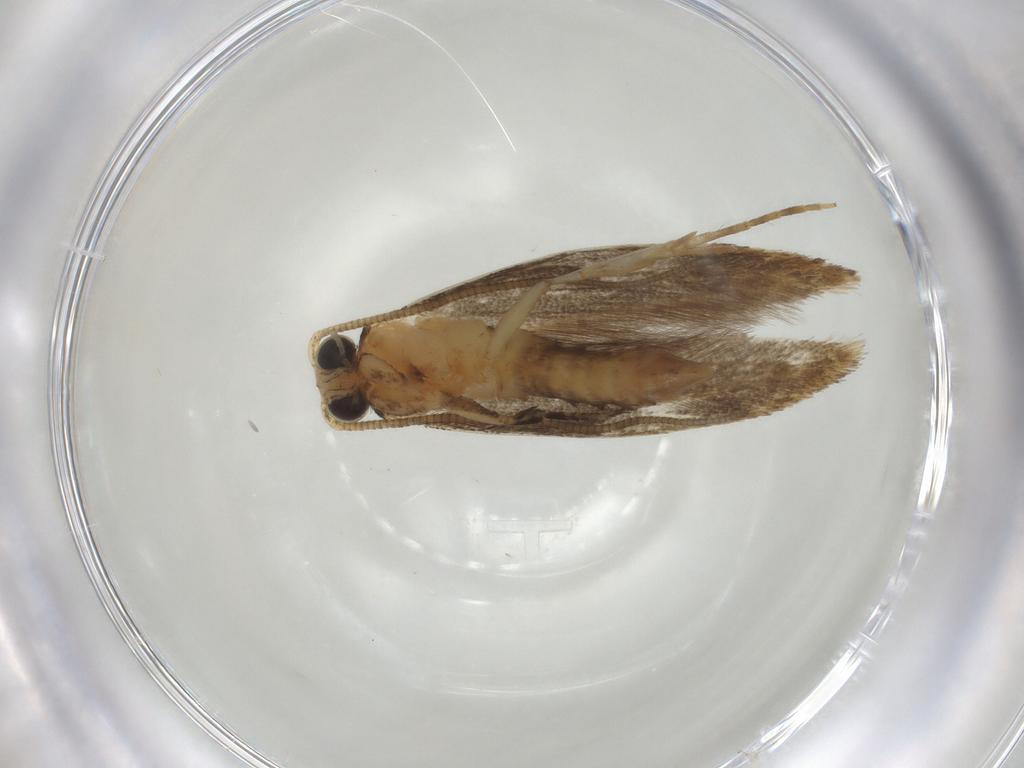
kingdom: Animalia
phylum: Arthropoda
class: Insecta
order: Lepidoptera
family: Tineidae
